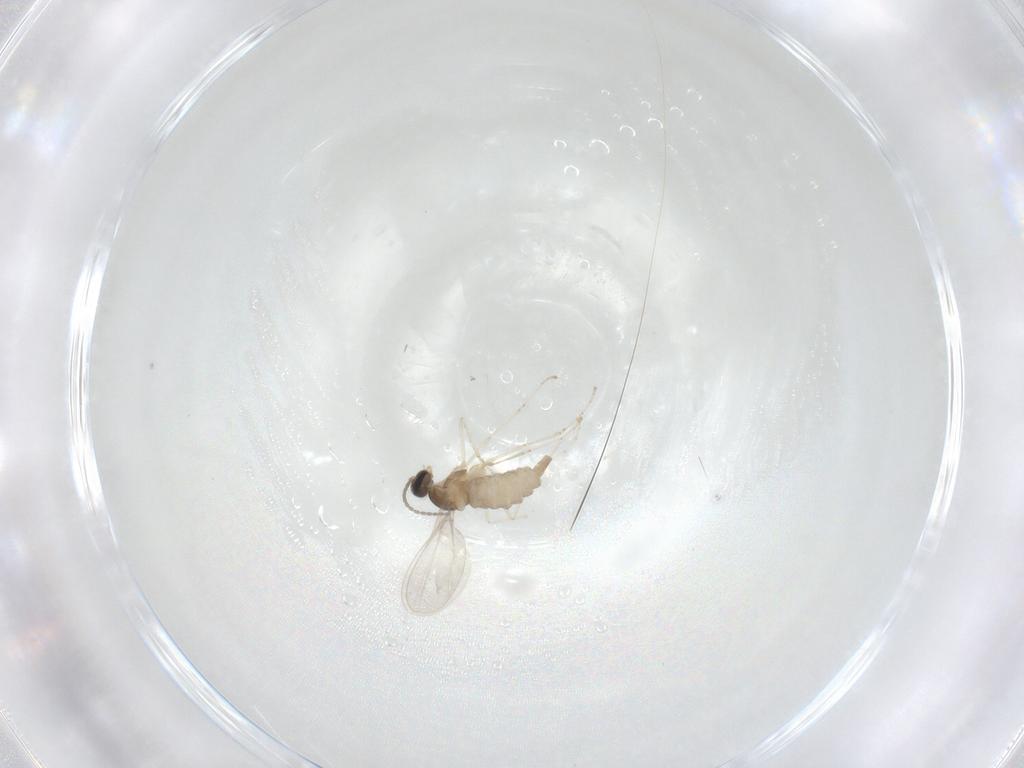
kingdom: Animalia
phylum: Arthropoda
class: Insecta
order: Diptera
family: Cecidomyiidae
